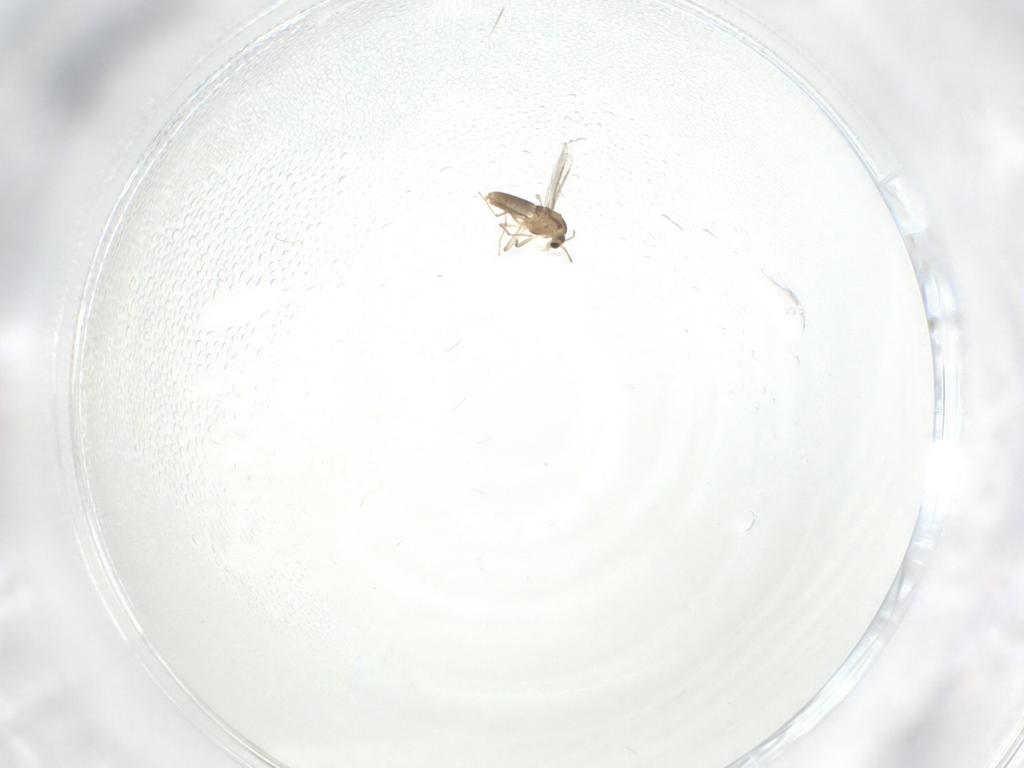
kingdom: Animalia
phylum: Arthropoda
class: Insecta
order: Diptera
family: Chironomidae
